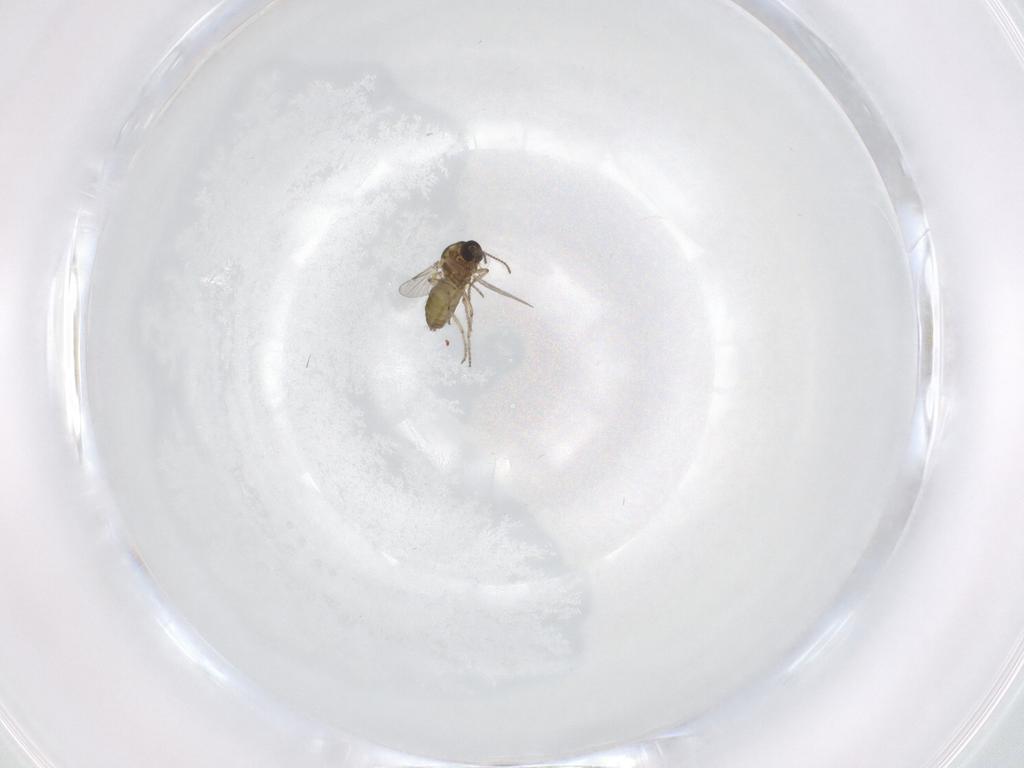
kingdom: Animalia
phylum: Arthropoda
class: Insecta
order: Diptera
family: Ceratopogonidae
